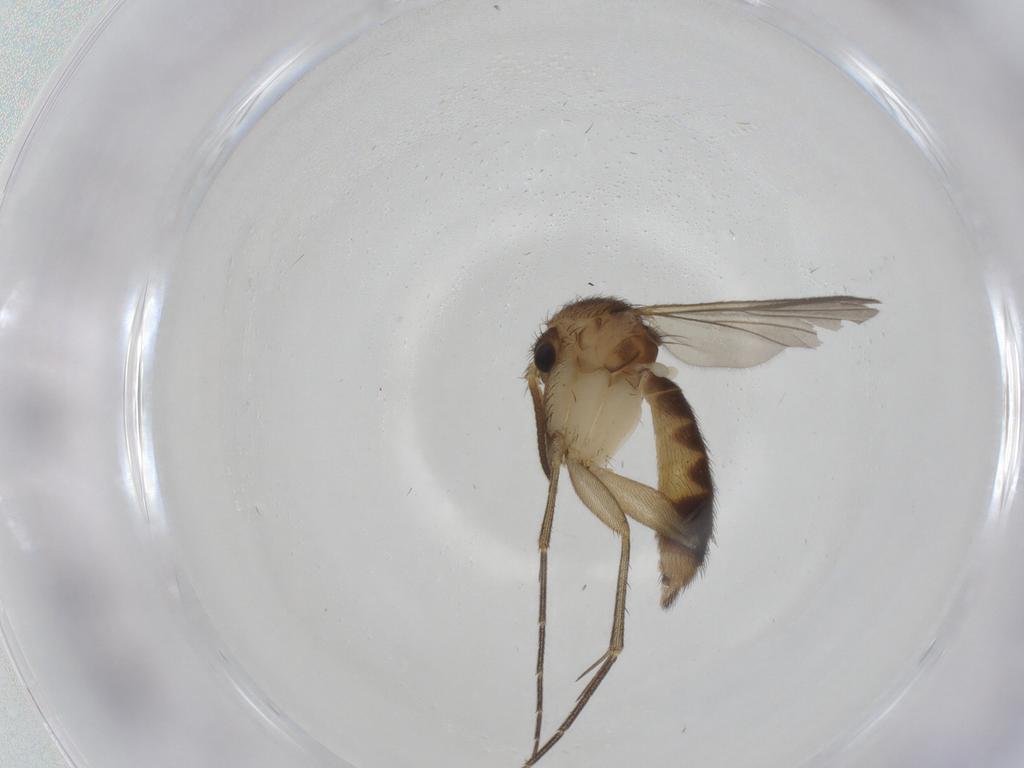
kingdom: Animalia
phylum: Arthropoda
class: Insecta
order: Diptera
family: Mycetophilidae
